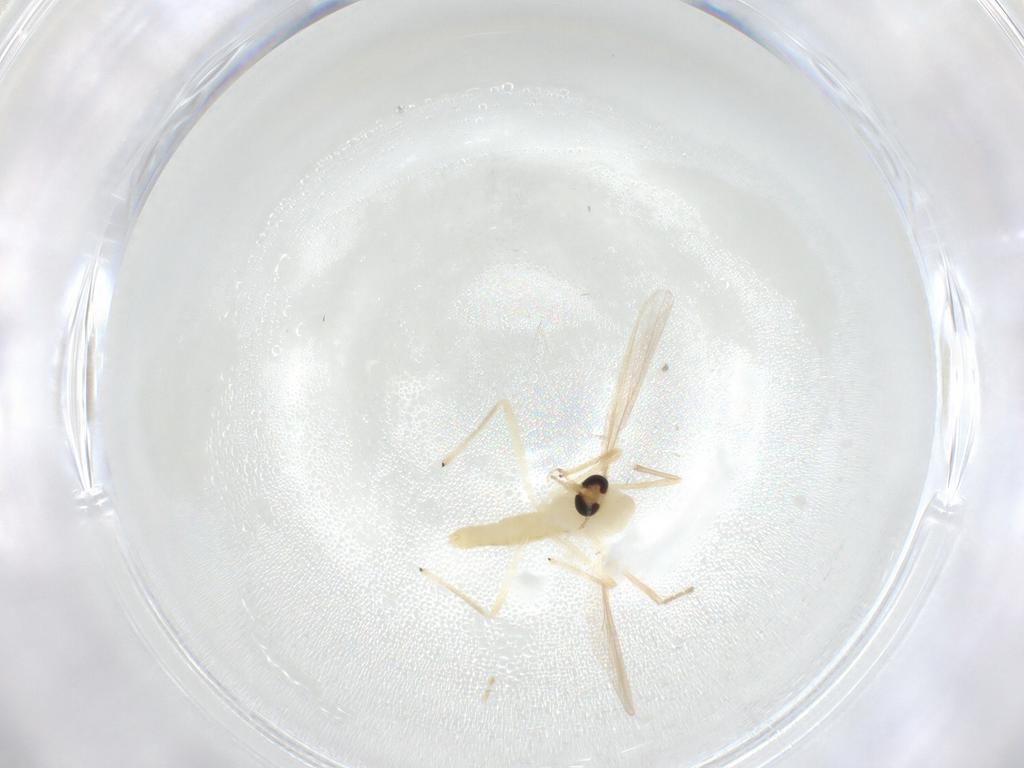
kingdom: Animalia
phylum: Arthropoda
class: Insecta
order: Diptera
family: Chironomidae
